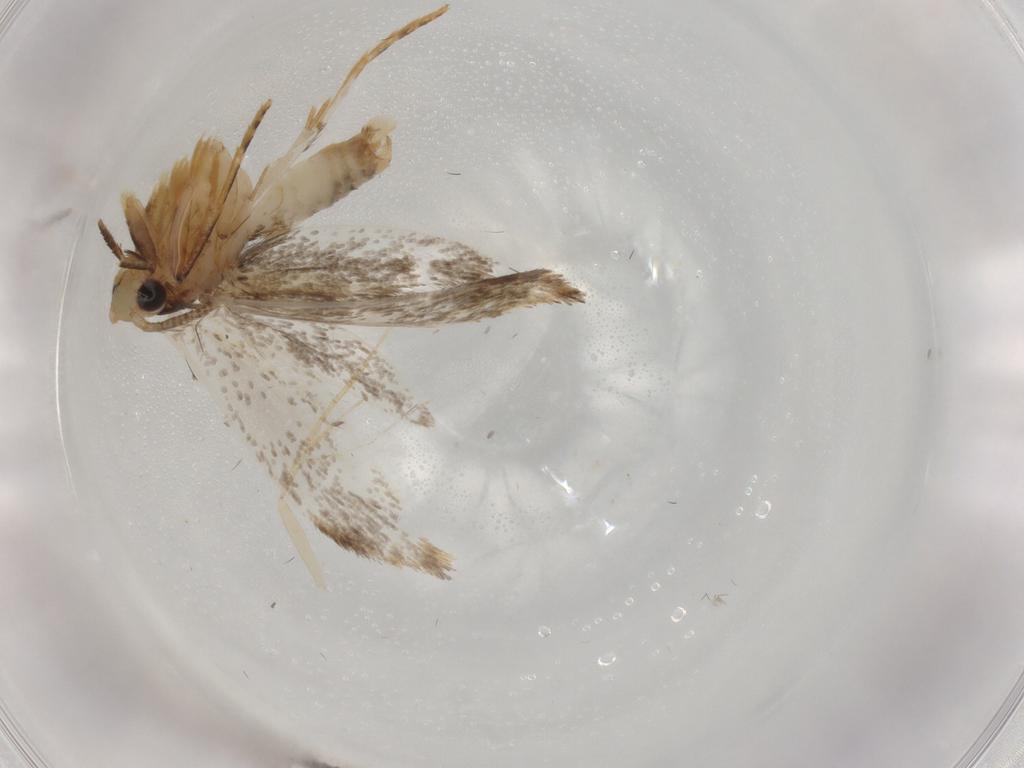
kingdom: Animalia
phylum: Arthropoda
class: Insecta
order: Lepidoptera
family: Tineidae
